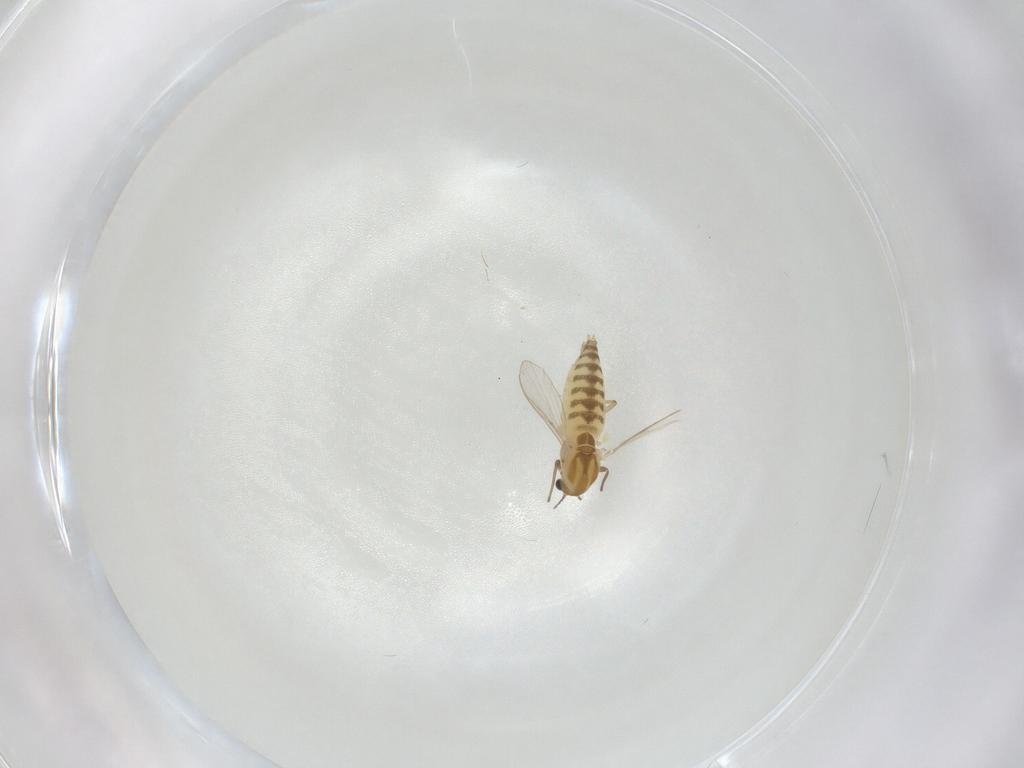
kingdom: Animalia
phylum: Arthropoda
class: Insecta
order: Diptera
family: Chironomidae
